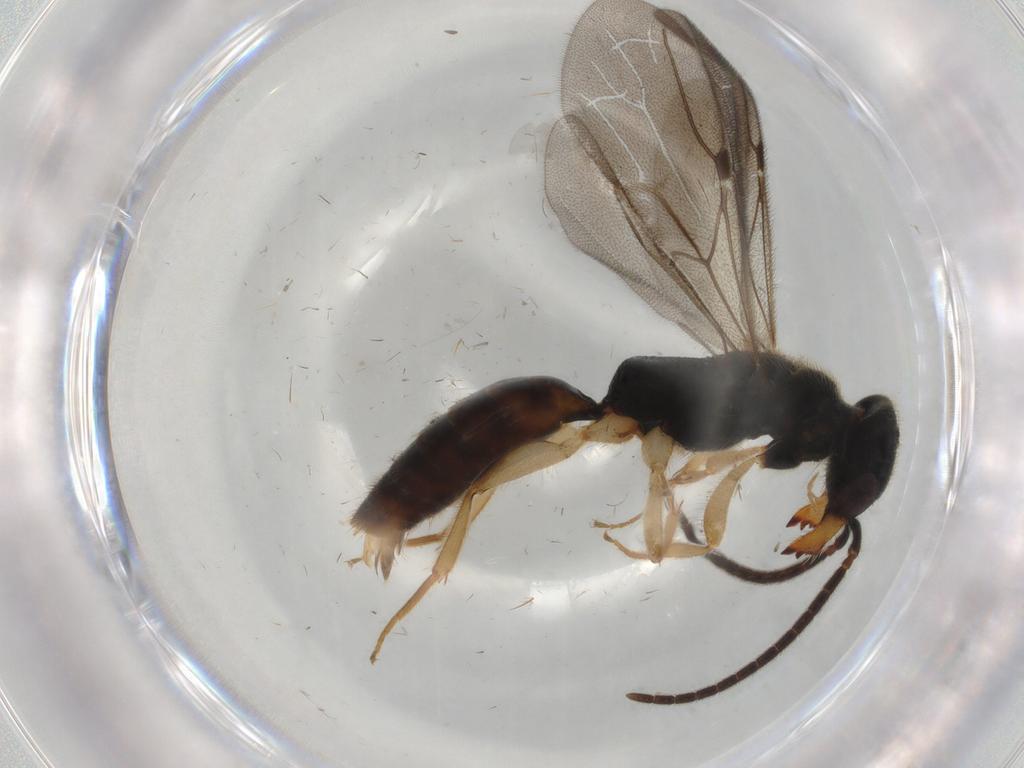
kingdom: Animalia
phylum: Arthropoda
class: Insecta
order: Hymenoptera
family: Bethylidae
